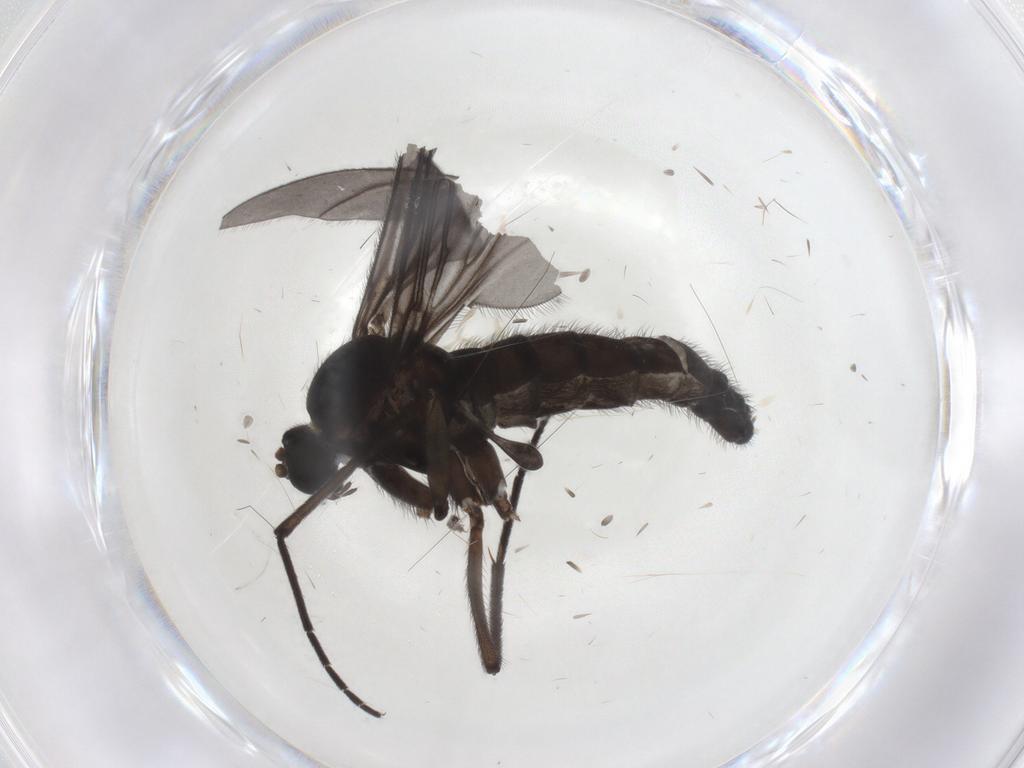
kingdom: Animalia
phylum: Arthropoda
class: Insecta
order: Diptera
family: Sciaridae
